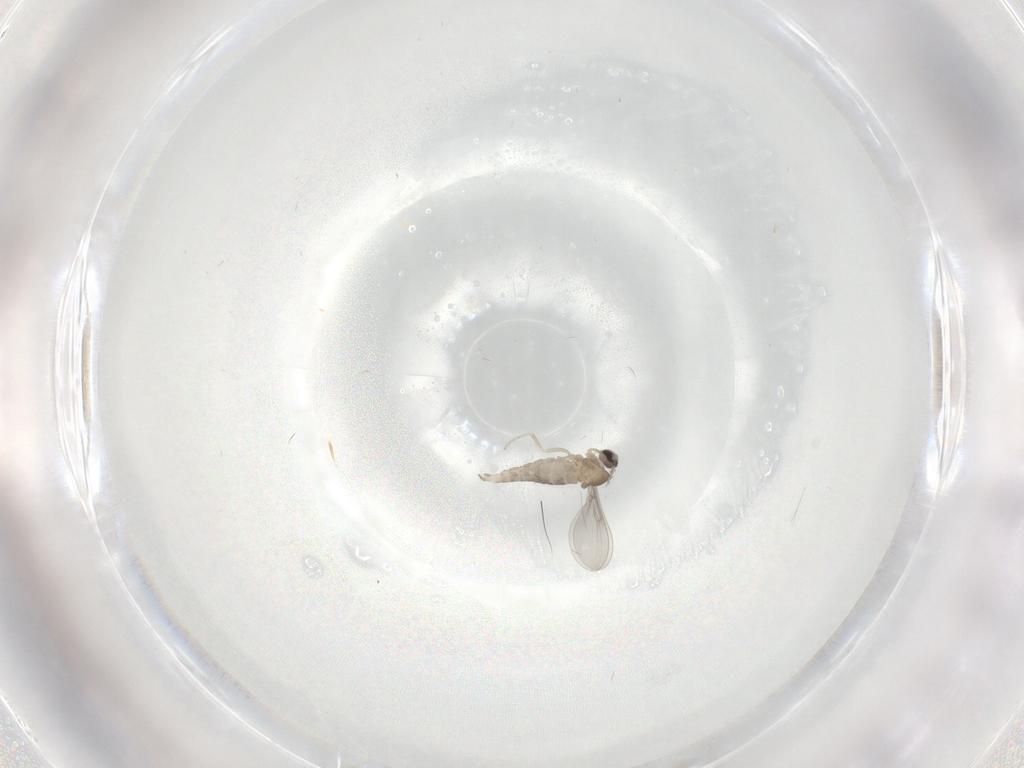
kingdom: Animalia
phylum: Arthropoda
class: Insecta
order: Diptera
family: Cecidomyiidae
